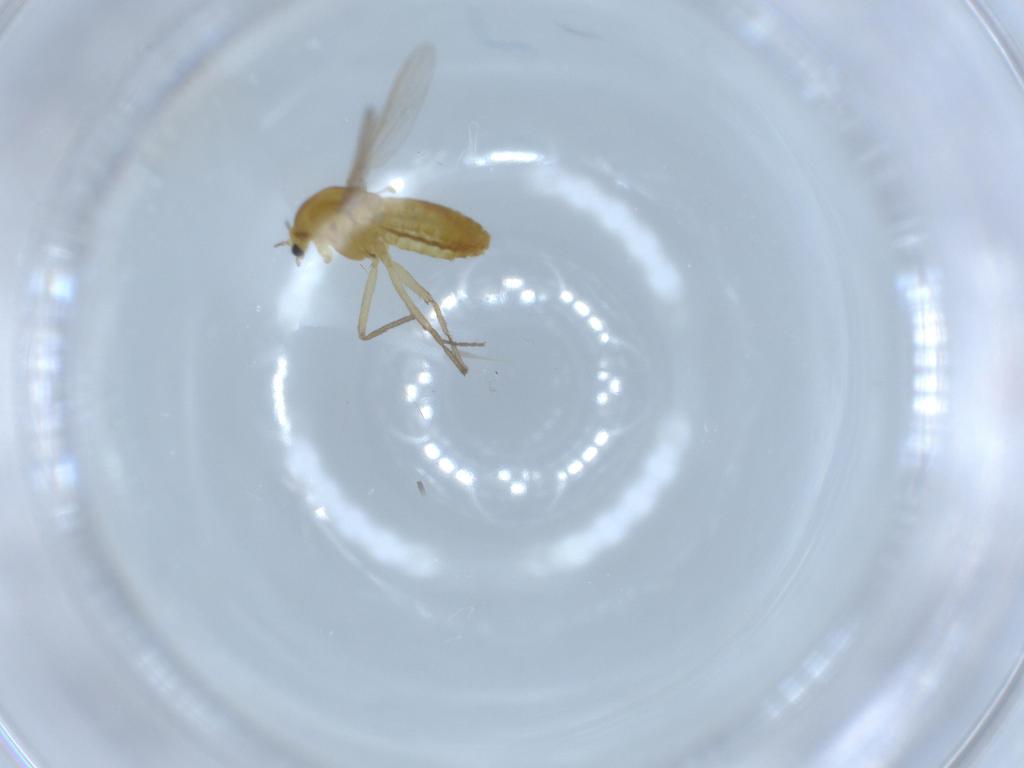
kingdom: Animalia
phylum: Arthropoda
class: Insecta
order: Diptera
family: Chironomidae
